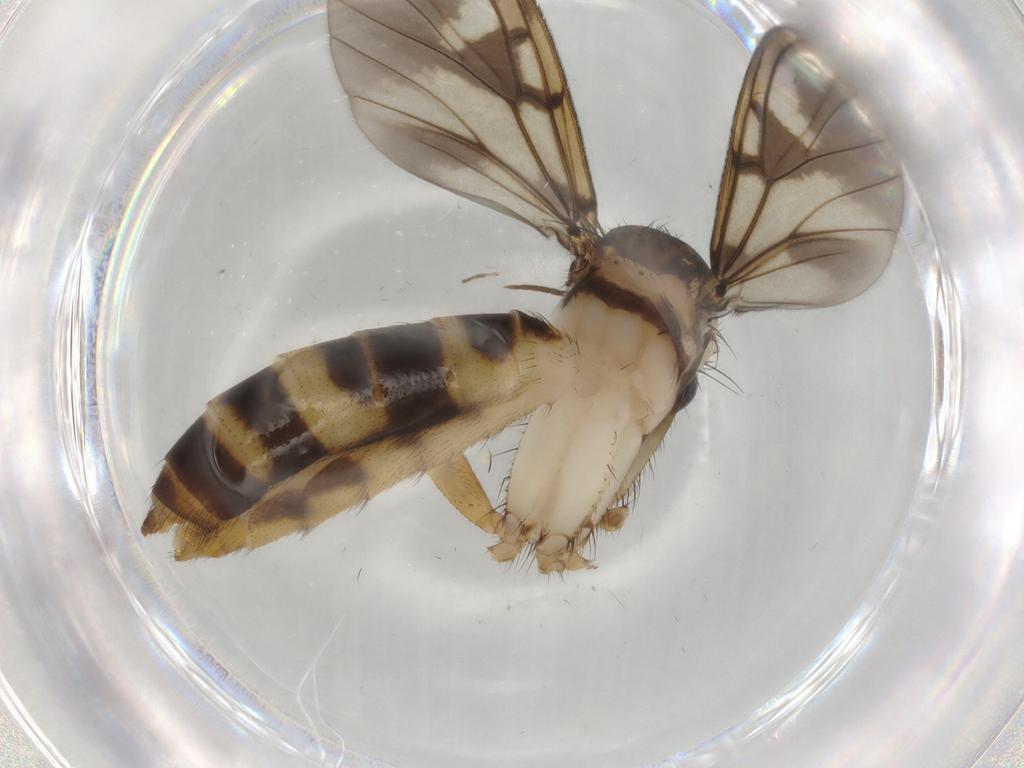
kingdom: Animalia
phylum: Arthropoda
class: Insecta
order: Diptera
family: Mycetophilidae
